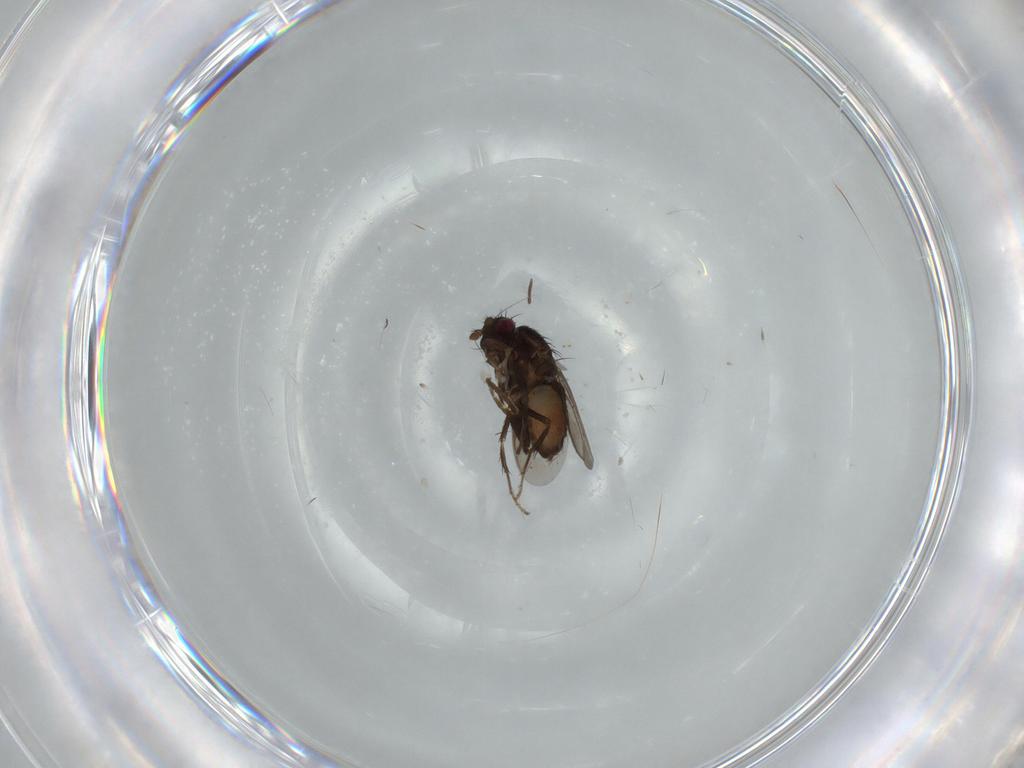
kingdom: Animalia
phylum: Arthropoda
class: Insecta
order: Diptera
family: Sphaeroceridae
